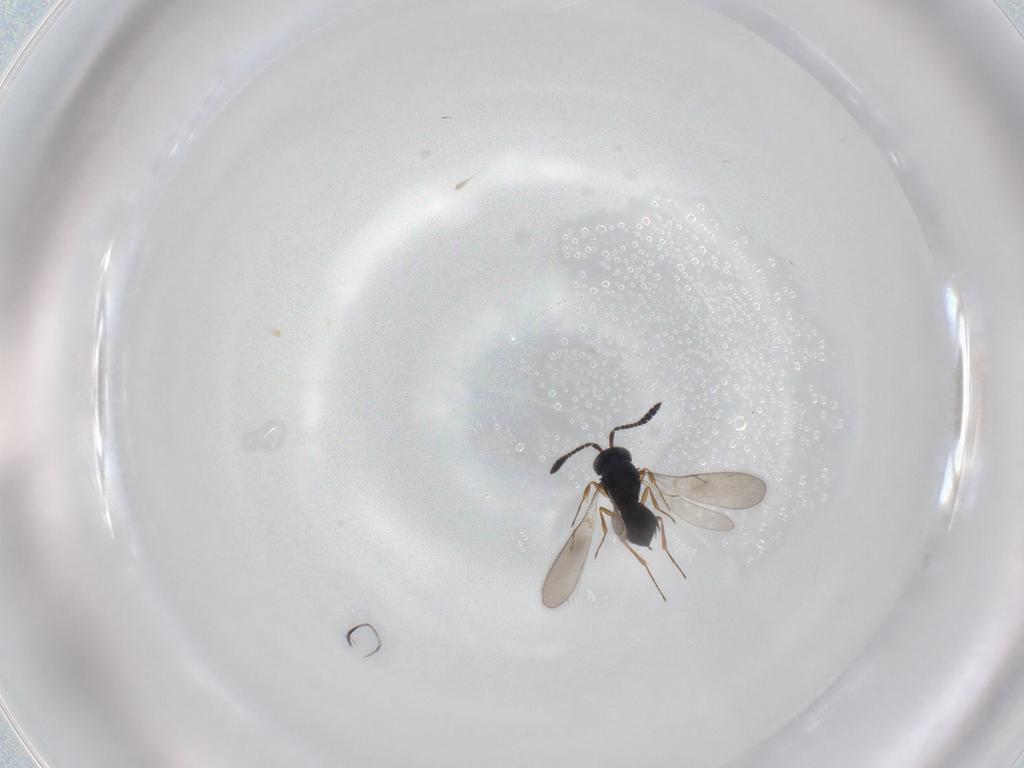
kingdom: Animalia
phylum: Arthropoda
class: Insecta
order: Hymenoptera
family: Scelionidae
